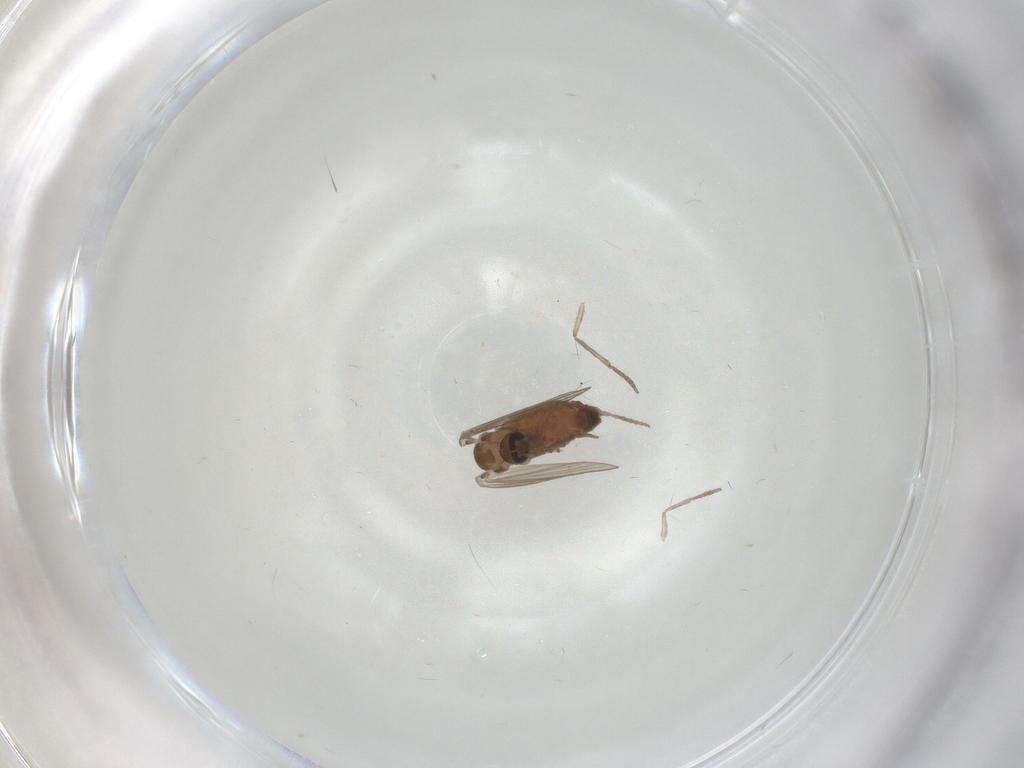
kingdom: Animalia
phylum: Arthropoda
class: Insecta
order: Diptera
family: Psychodidae
